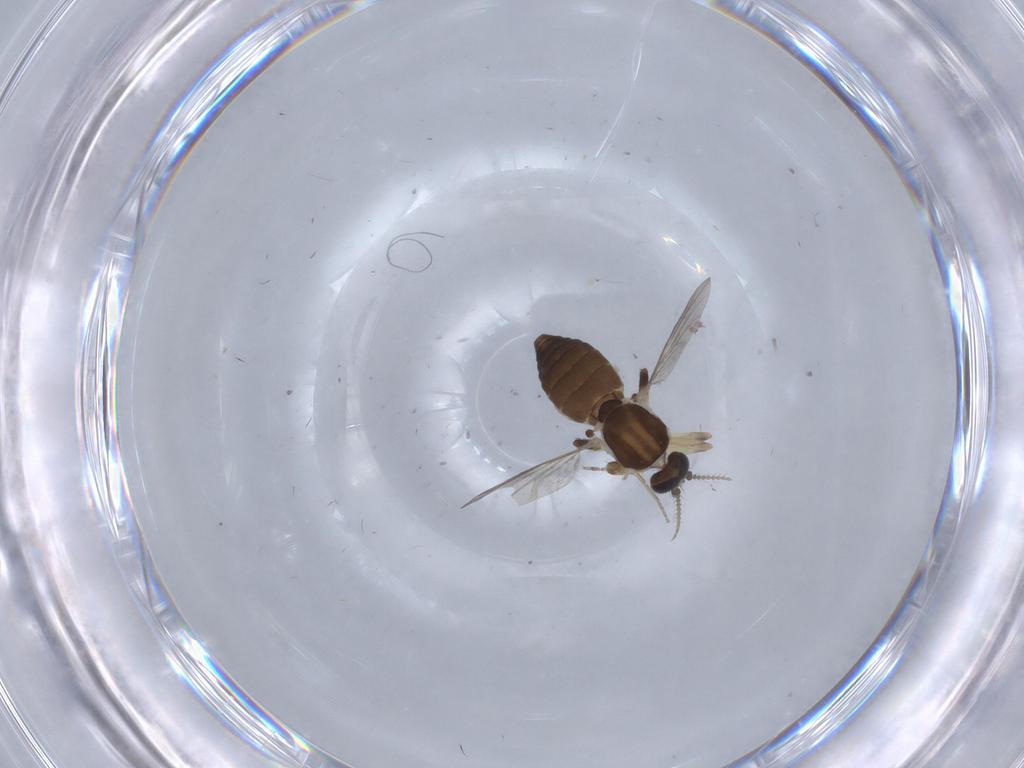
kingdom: Animalia
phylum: Arthropoda
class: Insecta
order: Diptera
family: Ceratopogonidae
